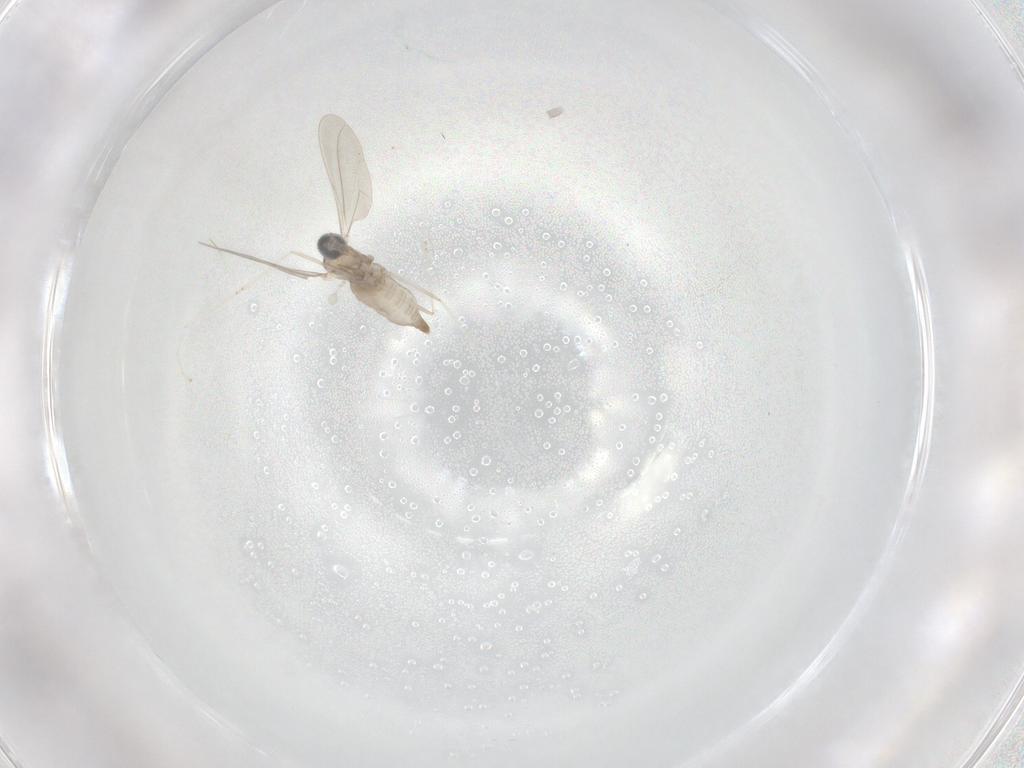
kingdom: Animalia
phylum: Arthropoda
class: Insecta
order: Diptera
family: Cecidomyiidae
